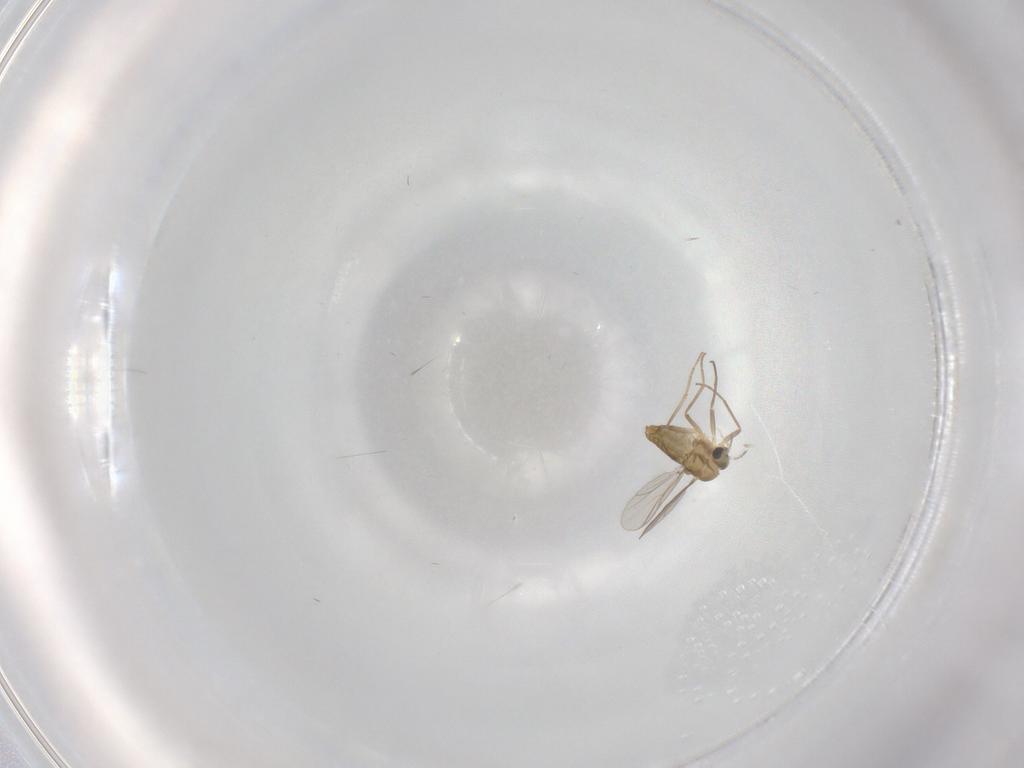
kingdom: Animalia
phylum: Arthropoda
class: Insecta
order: Diptera
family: Chironomidae
